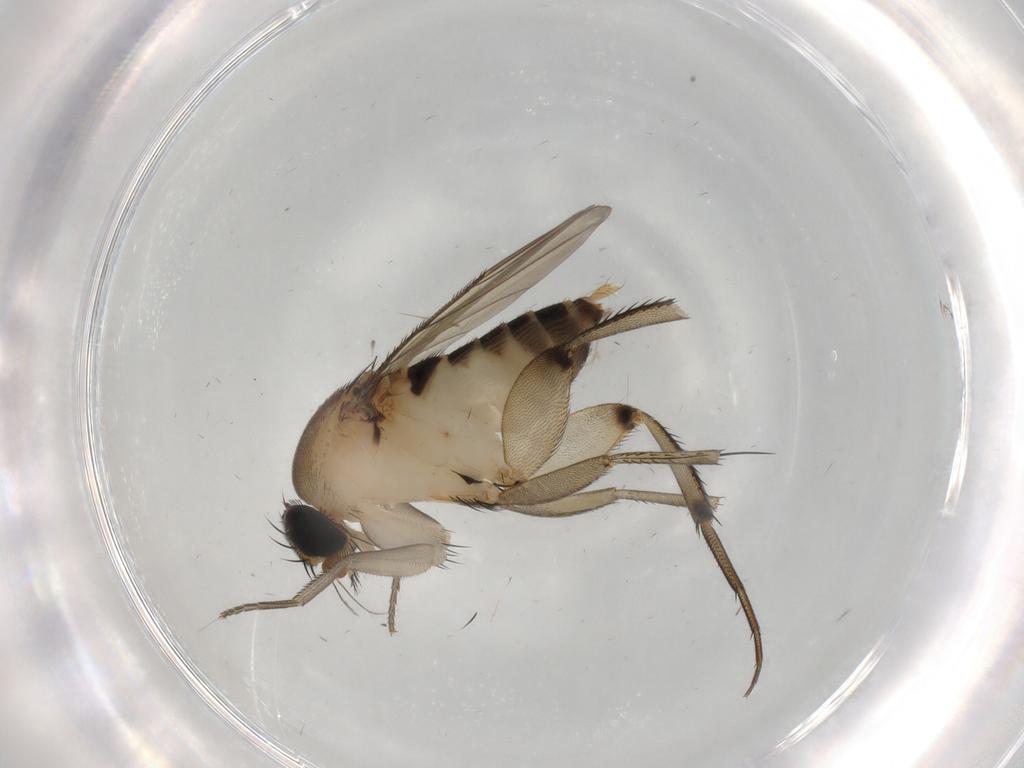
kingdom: Animalia
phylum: Arthropoda
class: Insecta
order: Diptera
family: Phoridae
